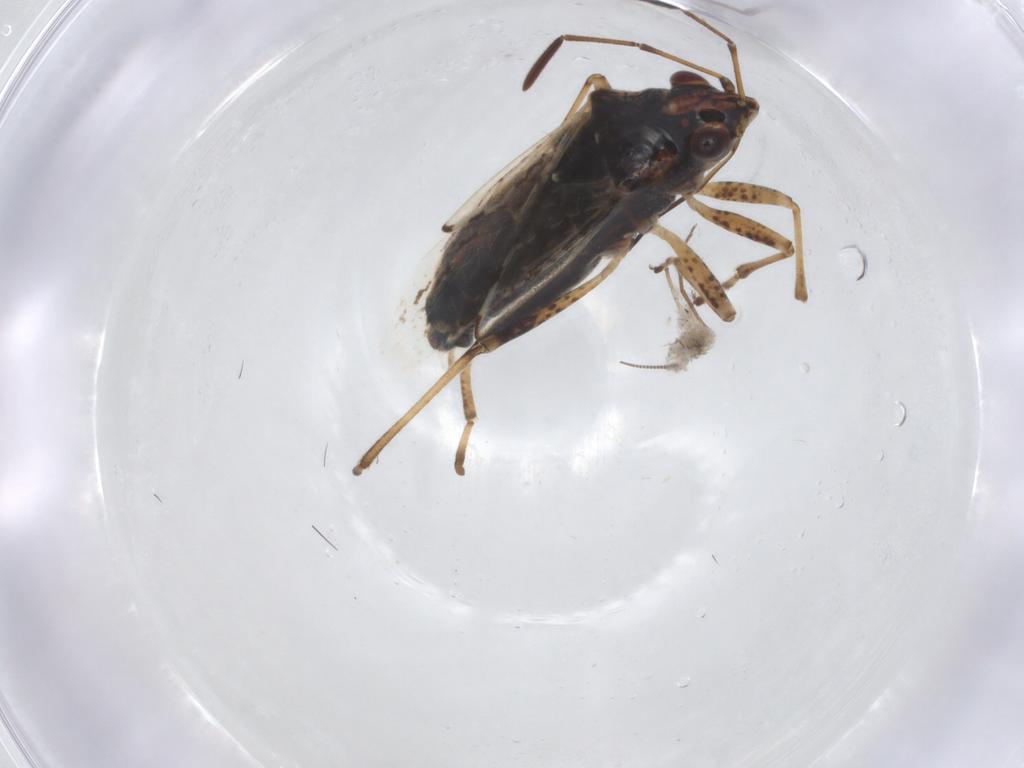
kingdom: Animalia
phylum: Arthropoda
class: Insecta
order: Hemiptera
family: Lygaeidae
